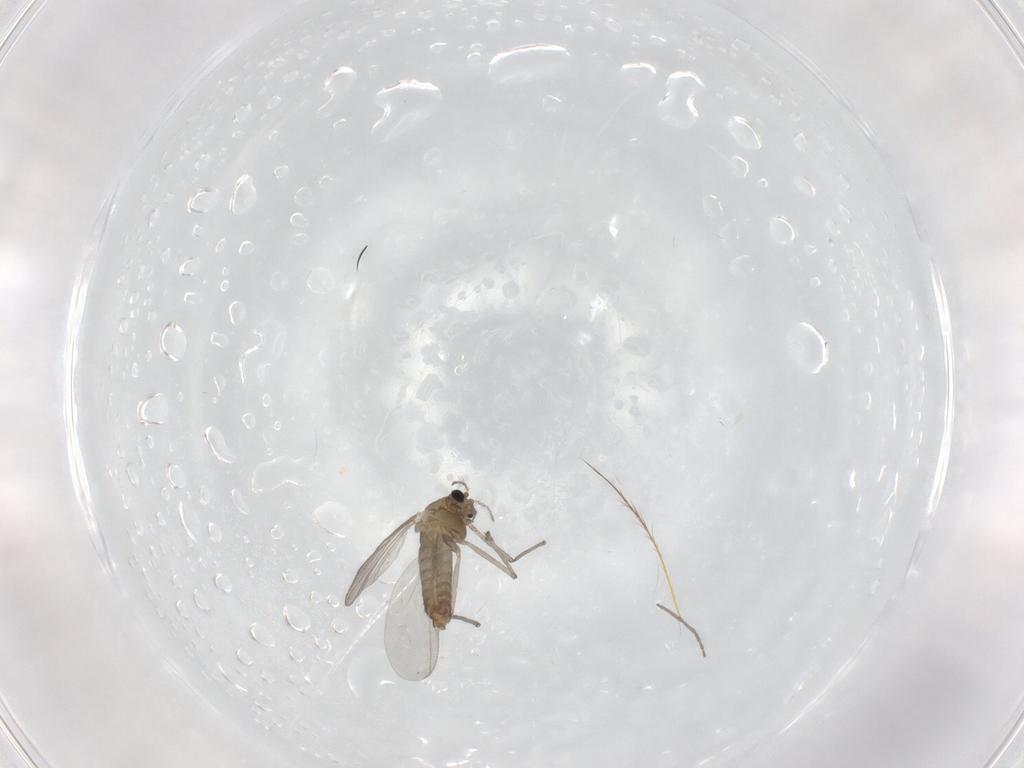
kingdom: Animalia
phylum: Arthropoda
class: Insecta
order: Diptera
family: Chironomidae
